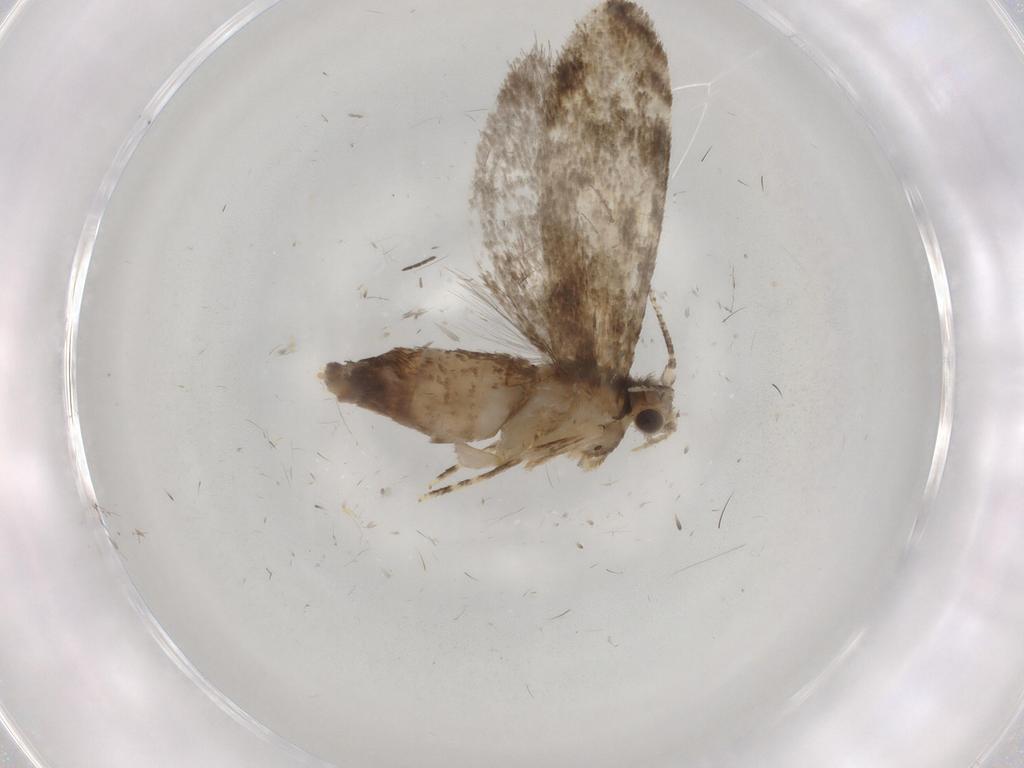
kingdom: Animalia
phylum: Arthropoda
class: Insecta
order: Lepidoptera
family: Tineidae
